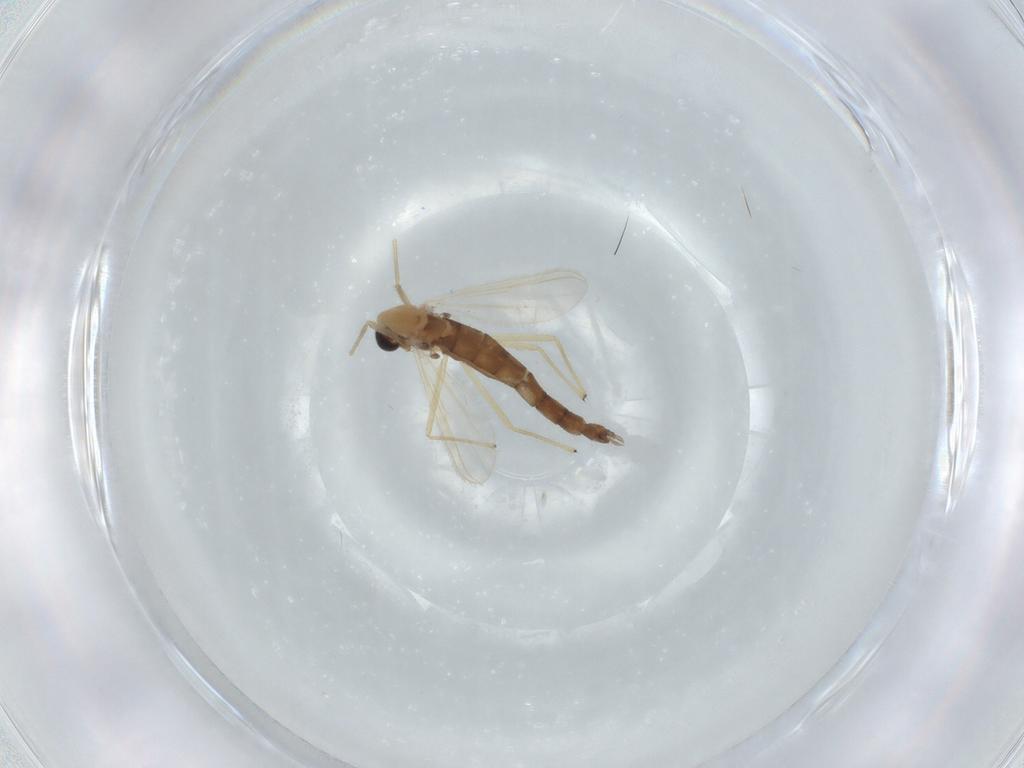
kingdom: Animalia
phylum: Arthropoda
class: Insecta
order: Diptera
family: Chironomidae
